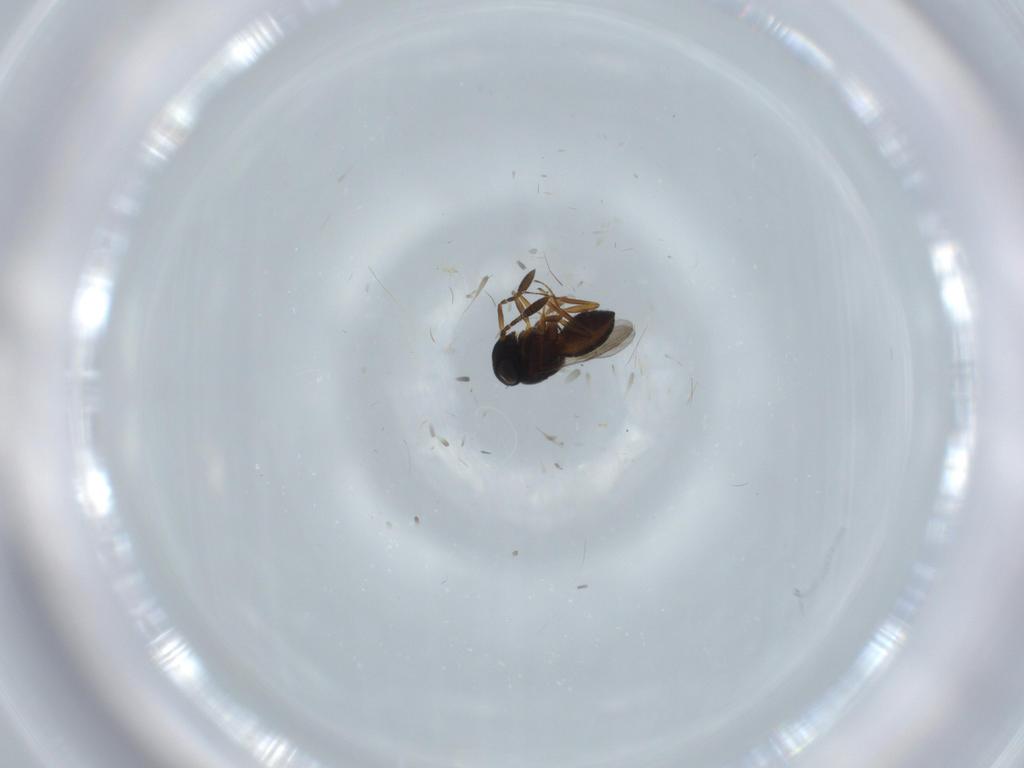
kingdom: Animalia
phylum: Arthropoda
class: Insecta
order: Hymenoptera
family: Scelionidae
